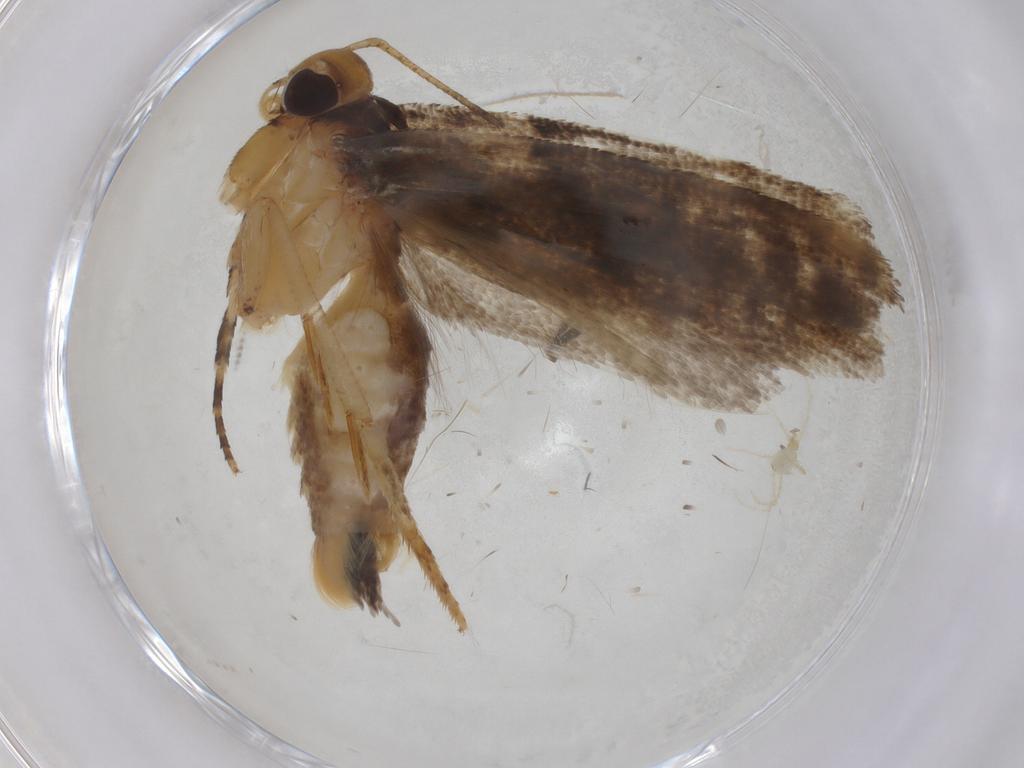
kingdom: Animalia
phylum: Arthropoda
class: Insecta
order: Lepidoptera
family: Gelechiidae
